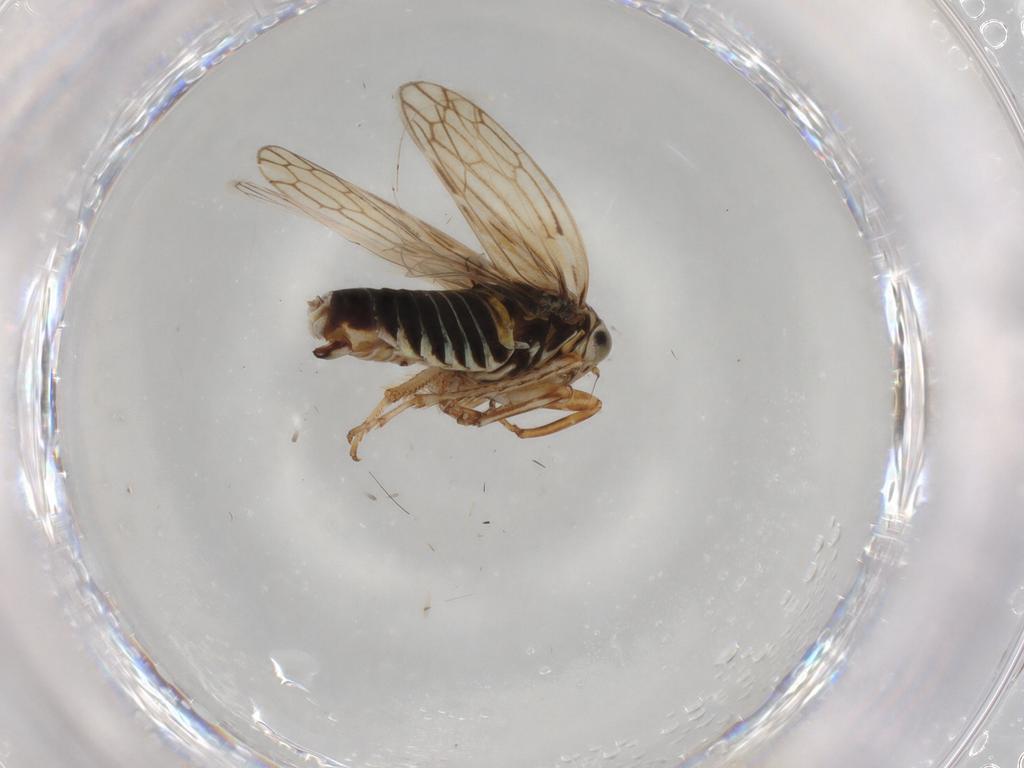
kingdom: Animalia
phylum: Arthropoda
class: Insecta
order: Hemiptera
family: Cicadellidae
